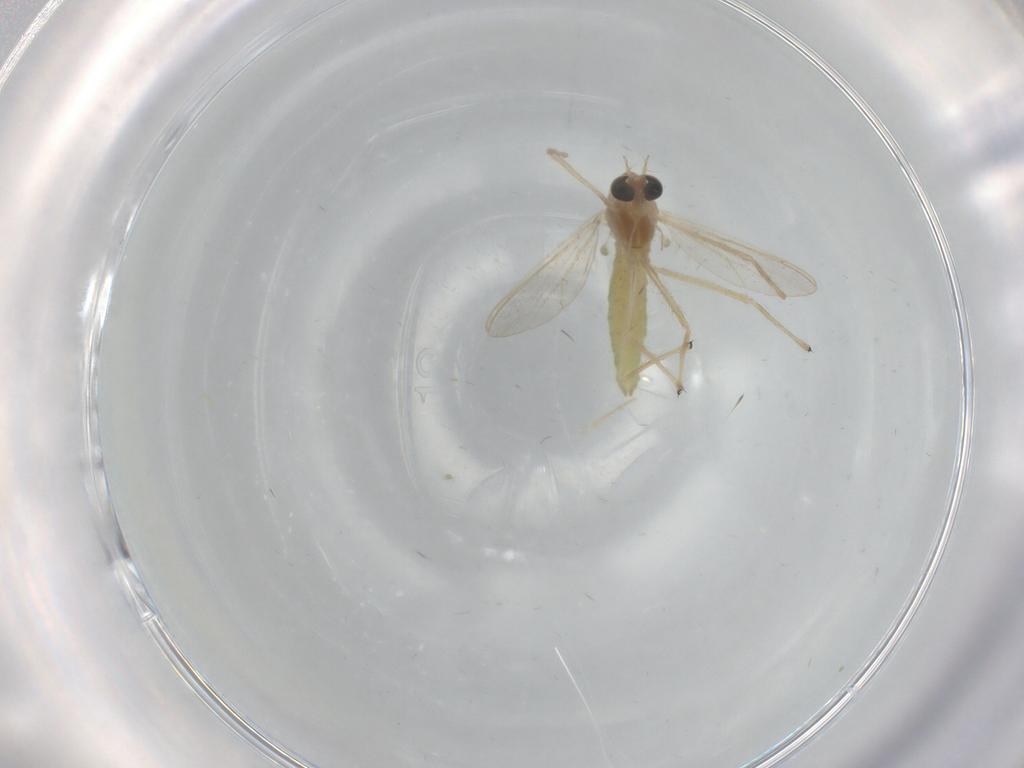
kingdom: Animalia
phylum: Arthropoda
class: Insecta
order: Diptera
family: Chironomidae
